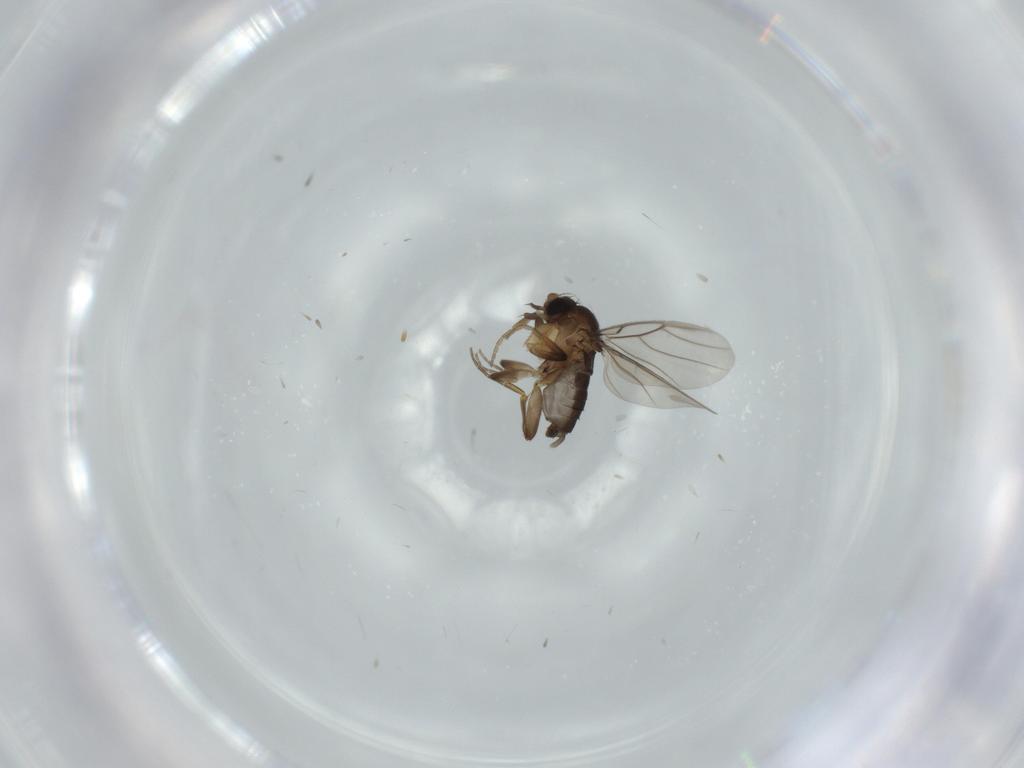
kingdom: Animalia
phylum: Arthropoda
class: Insecta
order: Diptera
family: Sciaridae
